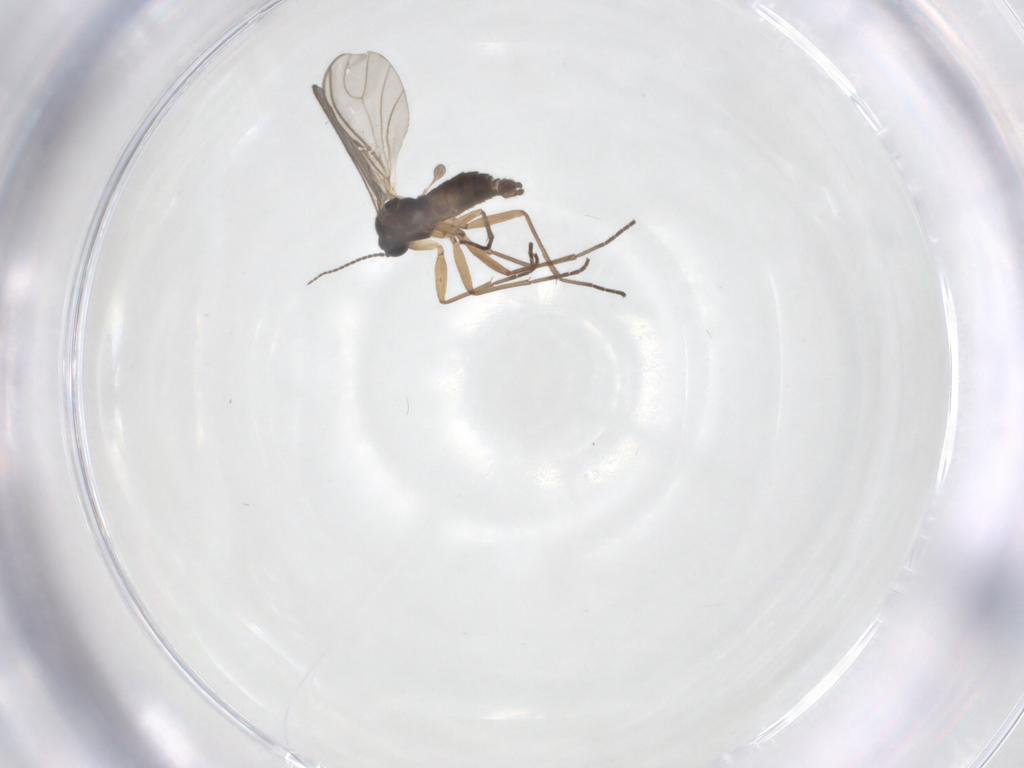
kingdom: Animalia
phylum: Arthropoda
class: Insecta
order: Diptera
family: Sciaridae
